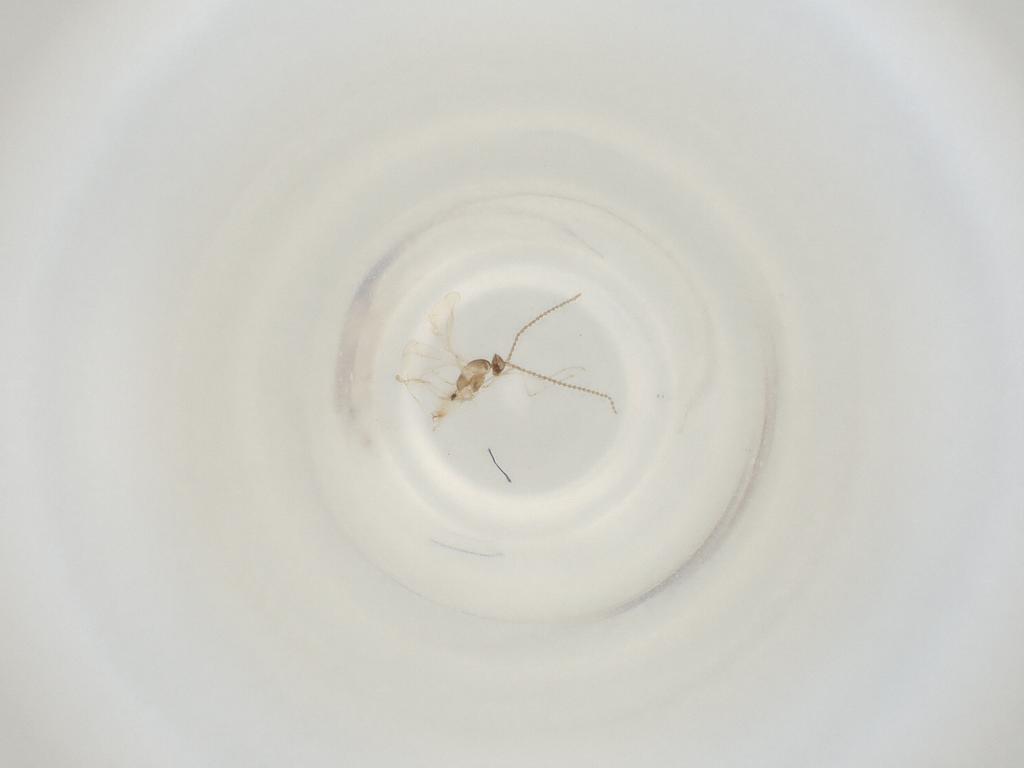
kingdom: Animalia
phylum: Arthropoda
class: Insecta
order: Diptera
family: Cecidomyiidae
